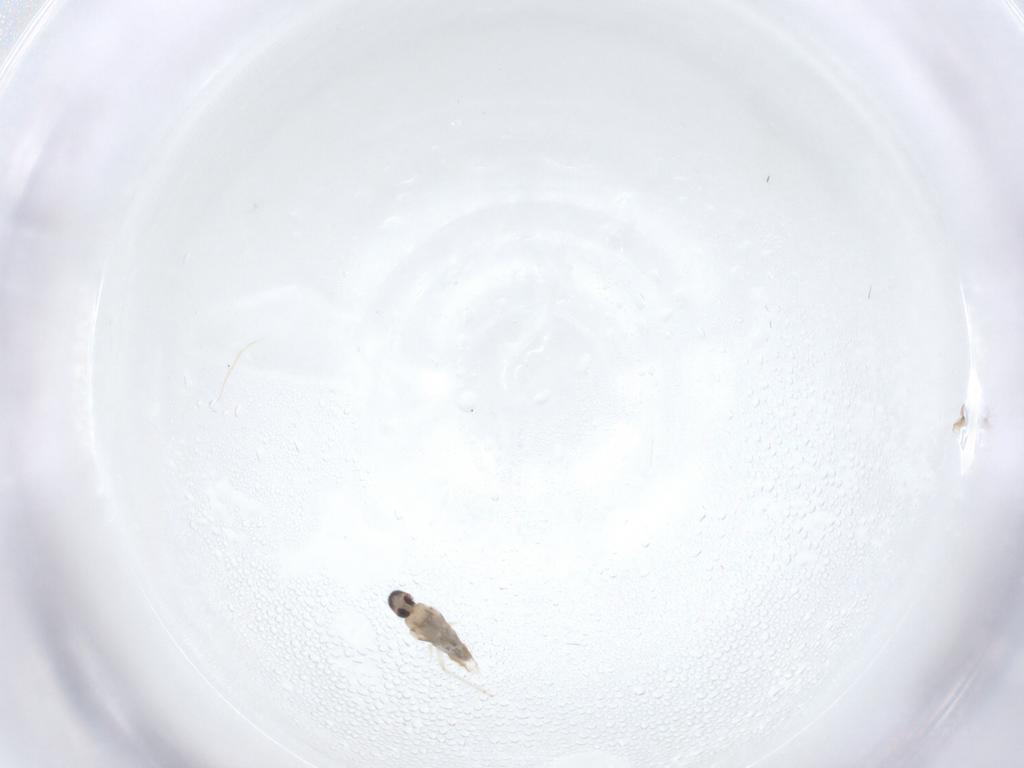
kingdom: Animalia
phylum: Arthropoda
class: Insecta
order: Diptera
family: Cecidomyiidae
